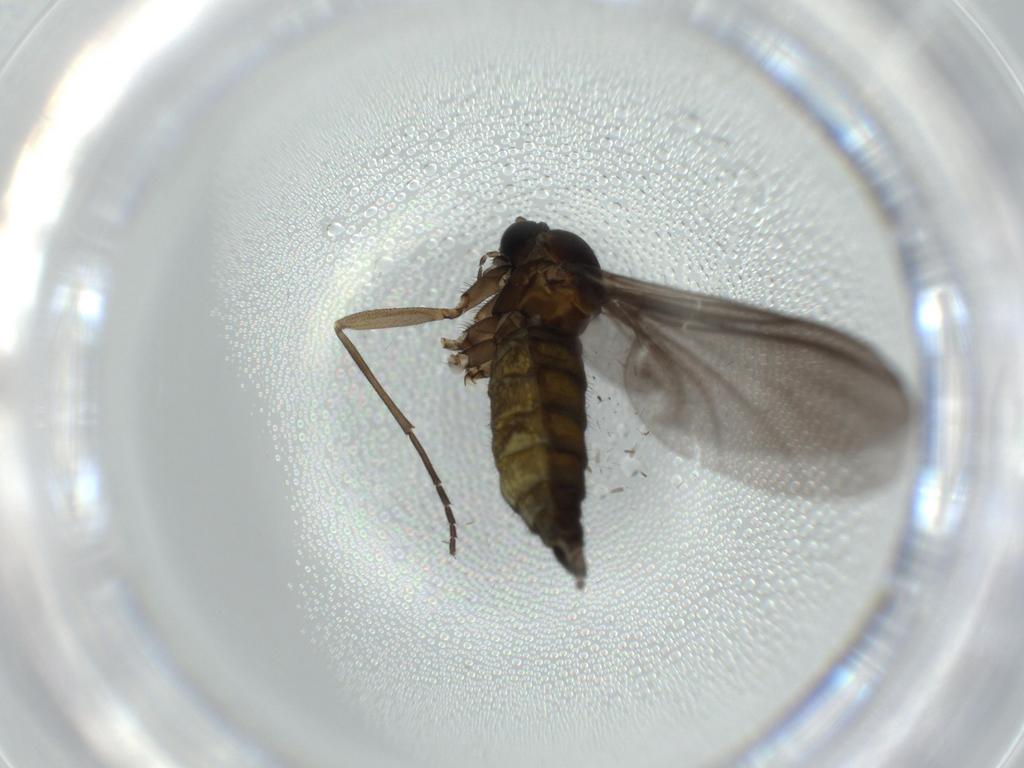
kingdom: Animalia
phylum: Arthropoda
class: Insecta
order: Diptera
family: Sciaridae
